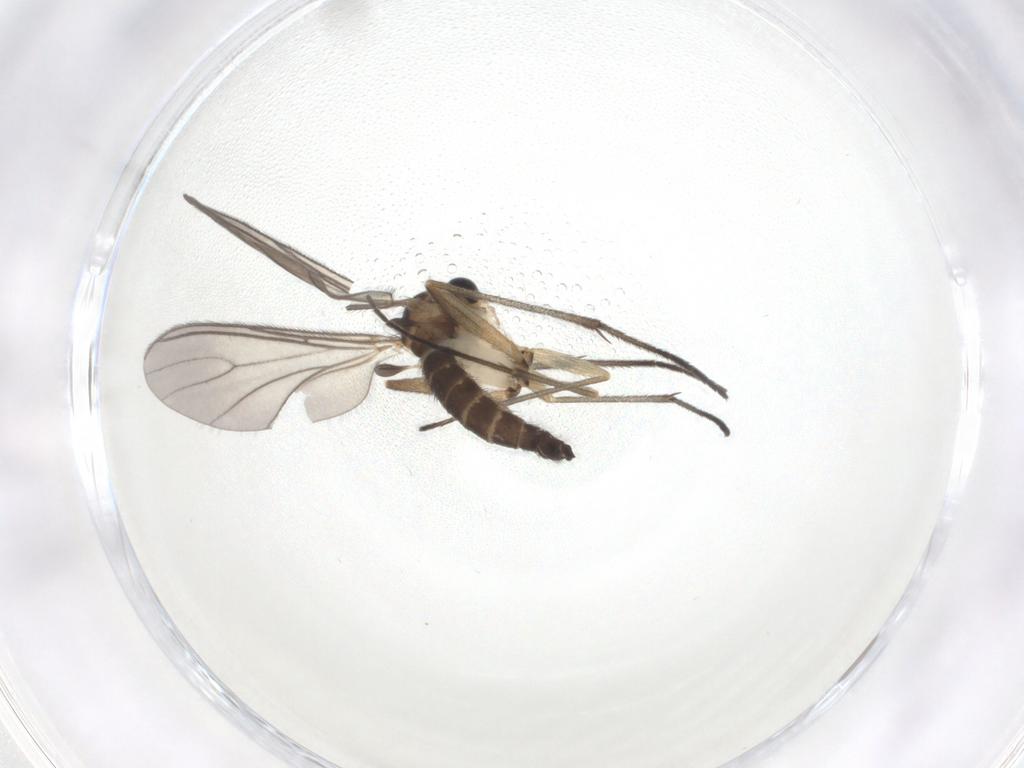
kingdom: Animalia
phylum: Arthropoda
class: Insecta
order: Diptera
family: Sciaridae
